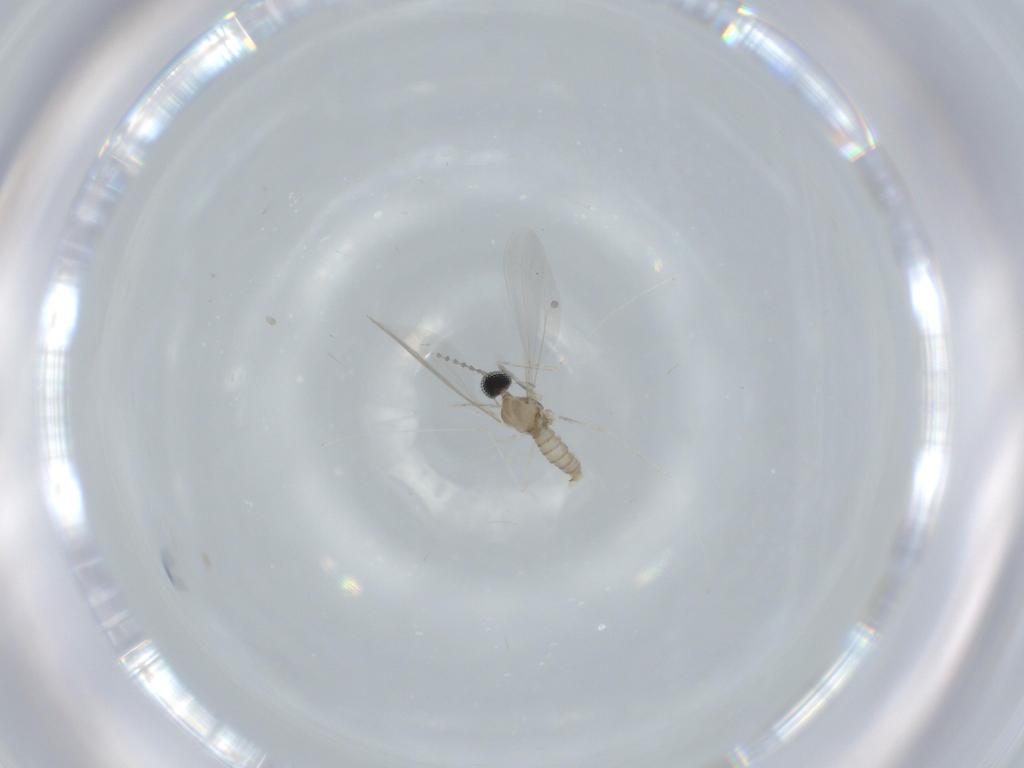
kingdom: Animalia
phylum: Arthropoda
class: Insecta
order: Diptera
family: Cecidomyiidae
